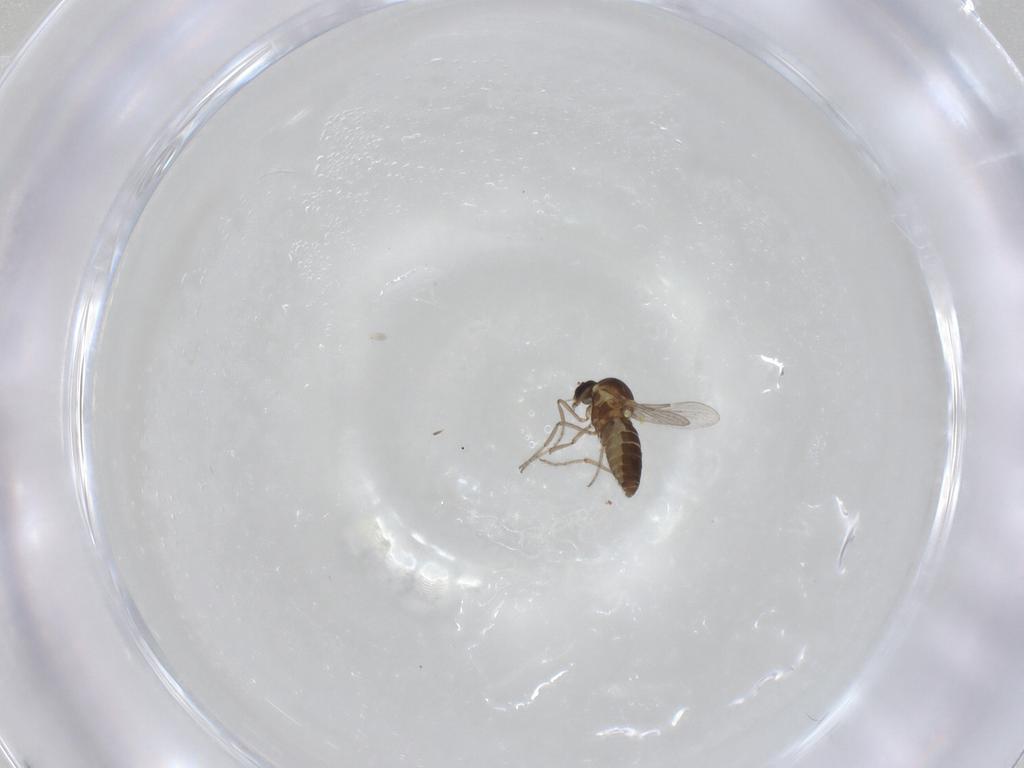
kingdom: Animalia
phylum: Arthropoda
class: Insecta
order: Diptera
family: Ceratopogonidae
